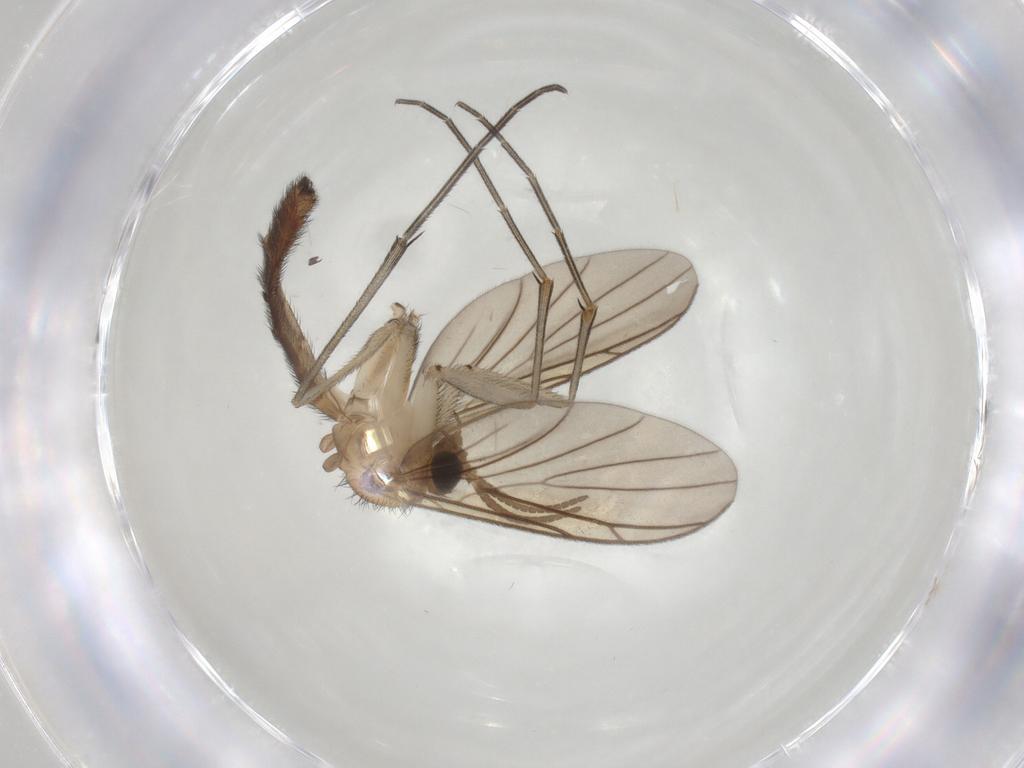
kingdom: Animalia
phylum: Arthropoda
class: Insecta
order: Diptera
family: Keroplatidae
